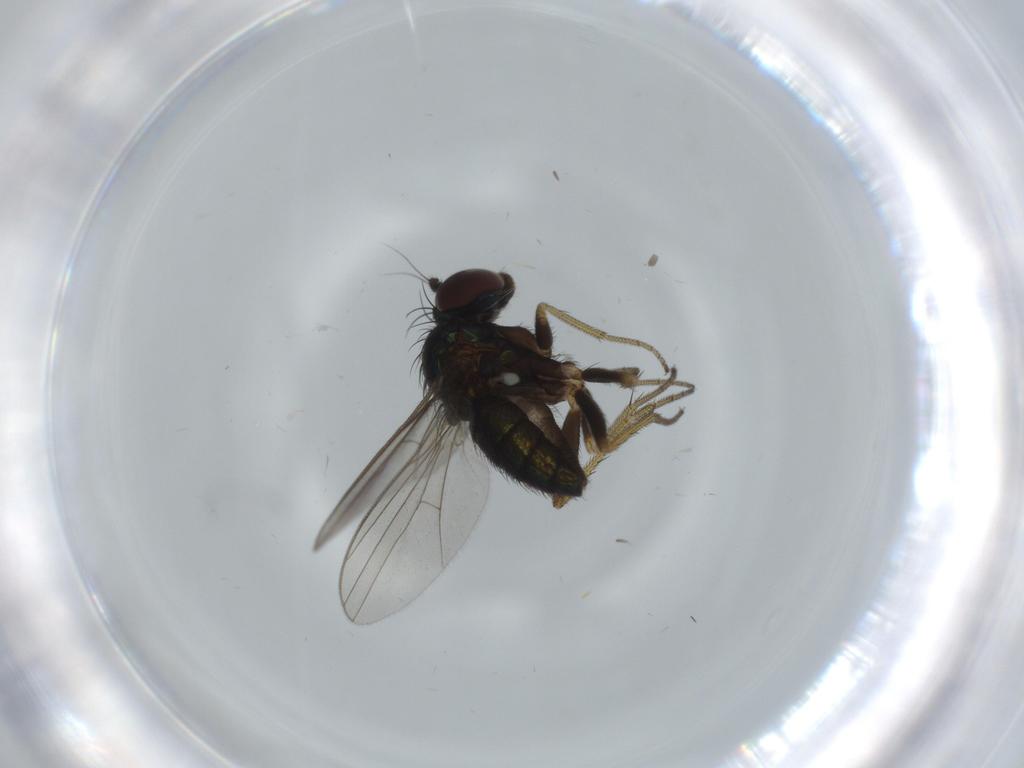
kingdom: Animalia
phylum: Arthropoda
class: Insecta
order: Diptera
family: Dolichopodidae
